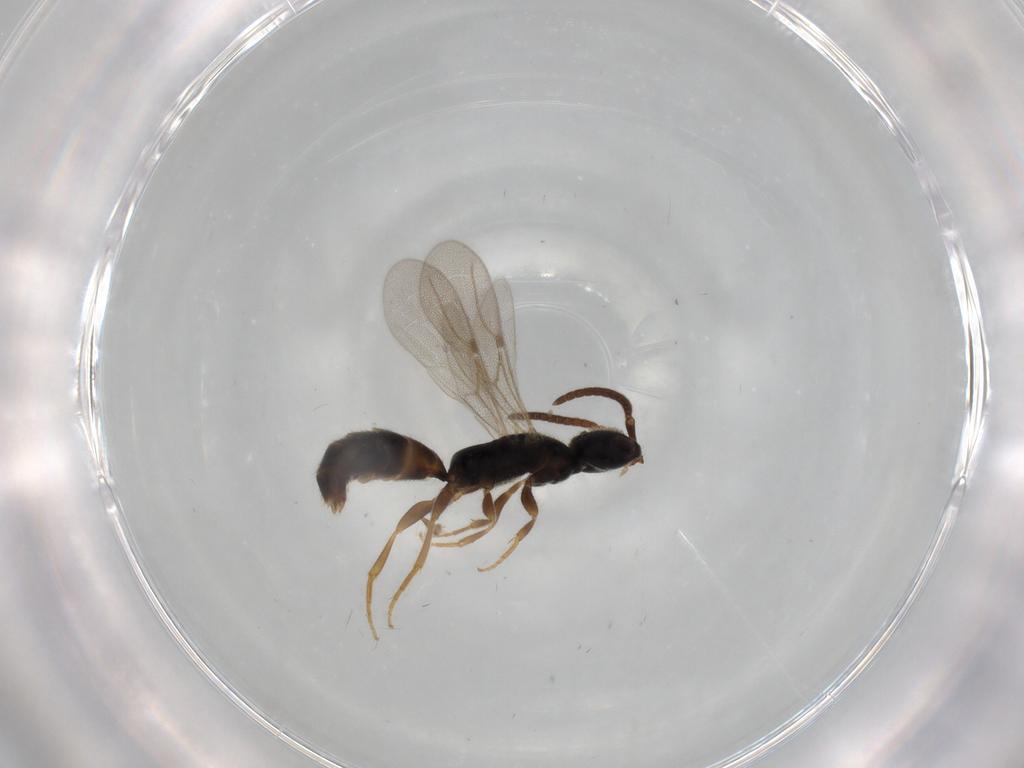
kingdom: Animalia
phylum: Arthropoda
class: Insecta
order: Hymenoptera
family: Bethylidae
